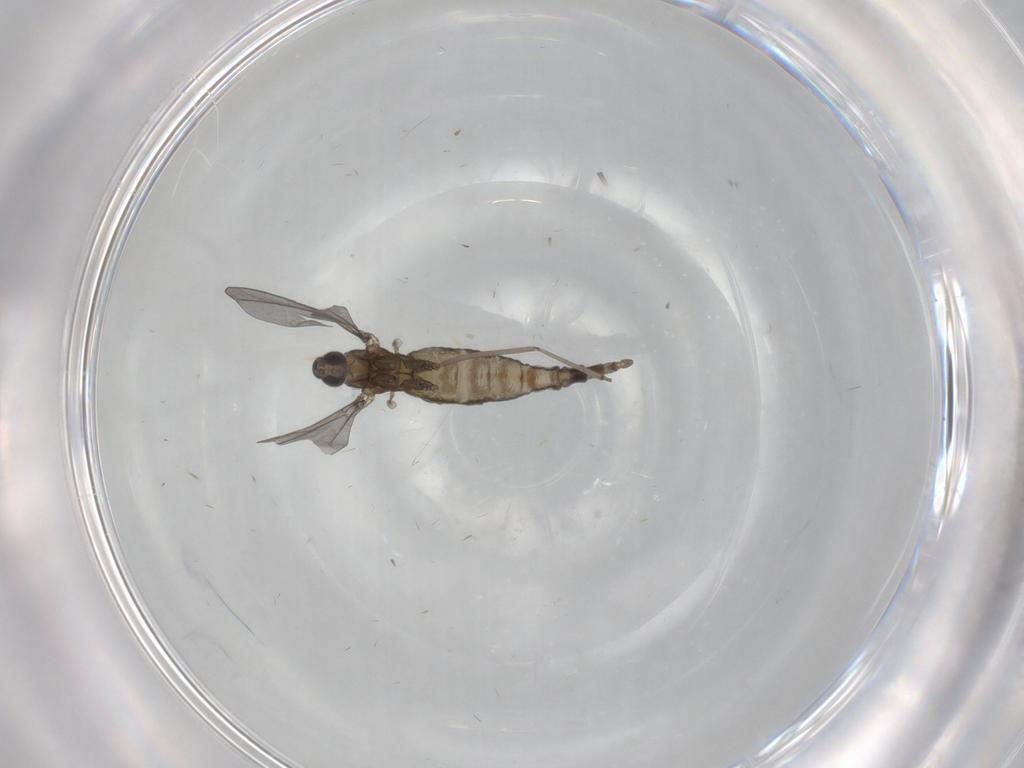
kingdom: Animalia
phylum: Arthropoda
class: Insecta
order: Diptera
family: Cecidomyiidae
